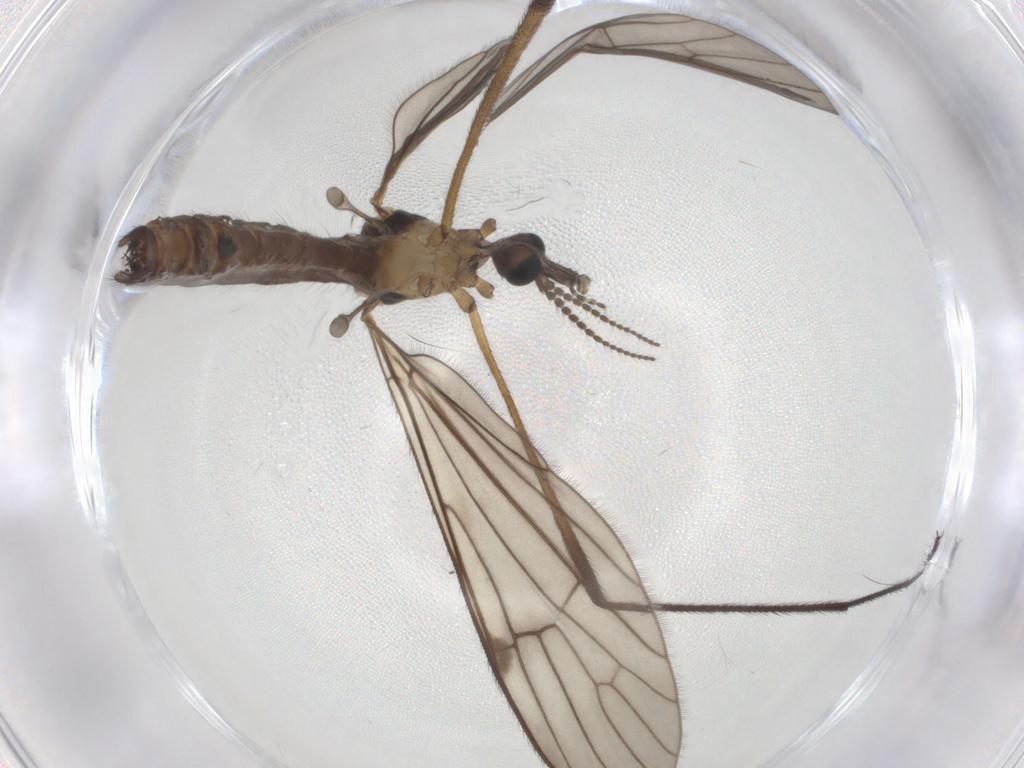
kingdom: Animalia
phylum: Arthropoda
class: Insecta
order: Diptera
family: Limoniidae
